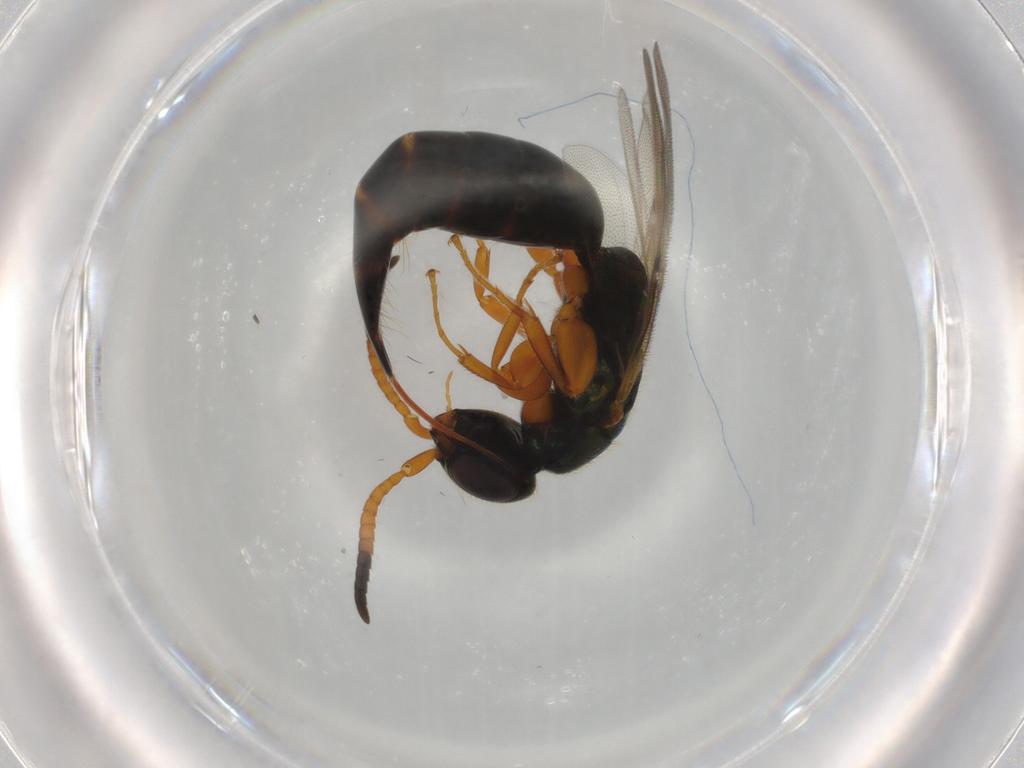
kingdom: Animalia
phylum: Arthropoda
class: Insecta
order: Hymenoptera
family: Bethylidae
